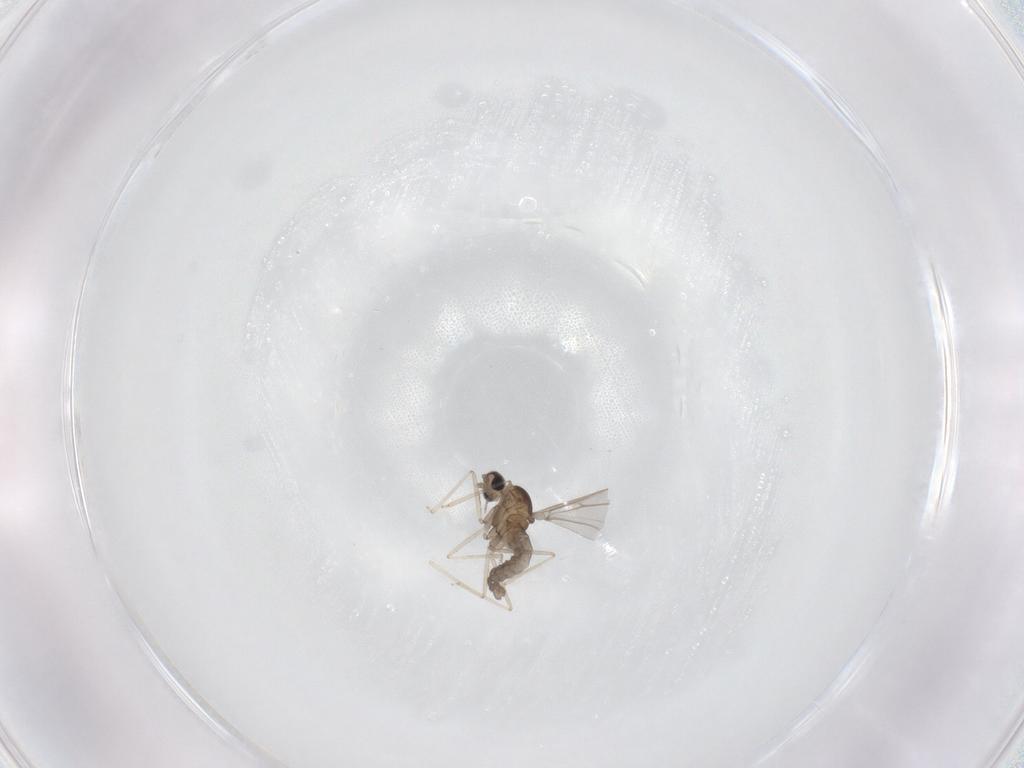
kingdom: Animalia
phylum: Arthropoda
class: Insecta
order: Diptera
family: Cecidomyiidae
